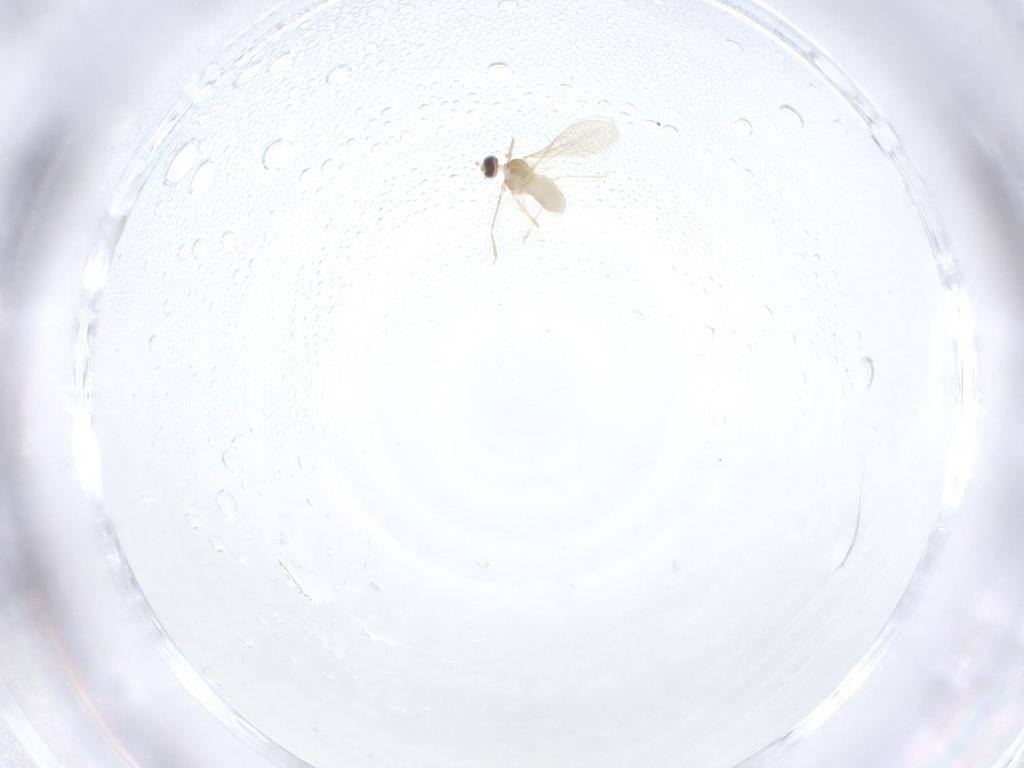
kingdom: Animalia
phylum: Arthropoda
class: Insecta
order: Diptera
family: Cecidomyiidae
